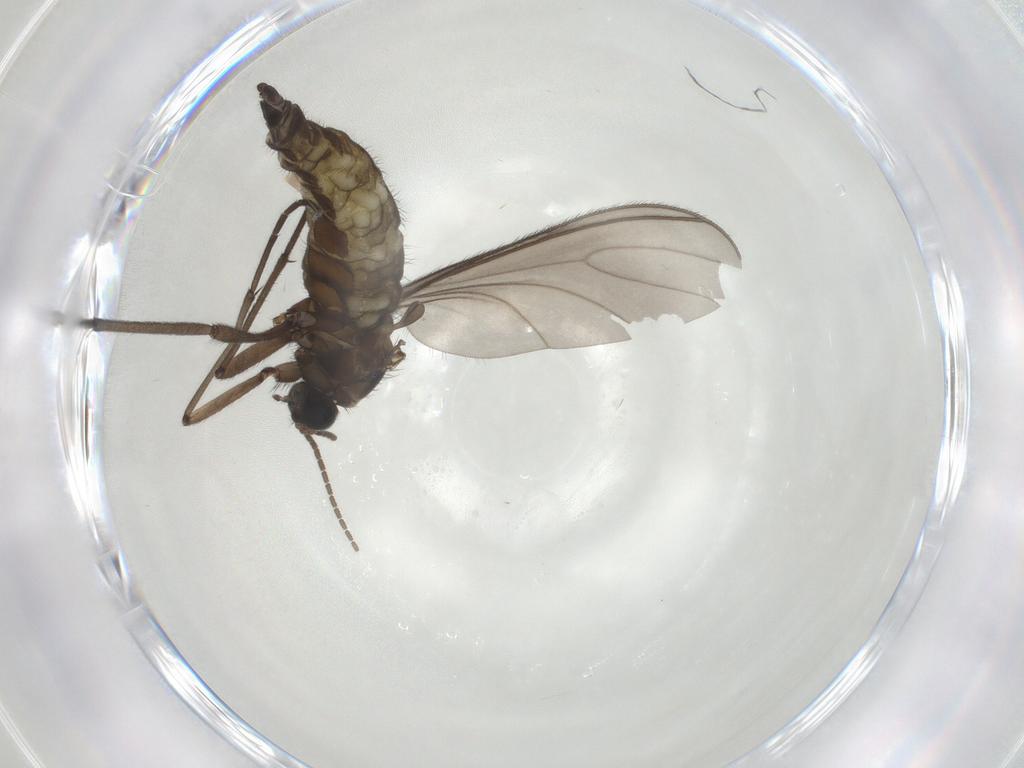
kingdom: Animalia
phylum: Arthropoda
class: Insecta
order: Diptera
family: Sciaridae
